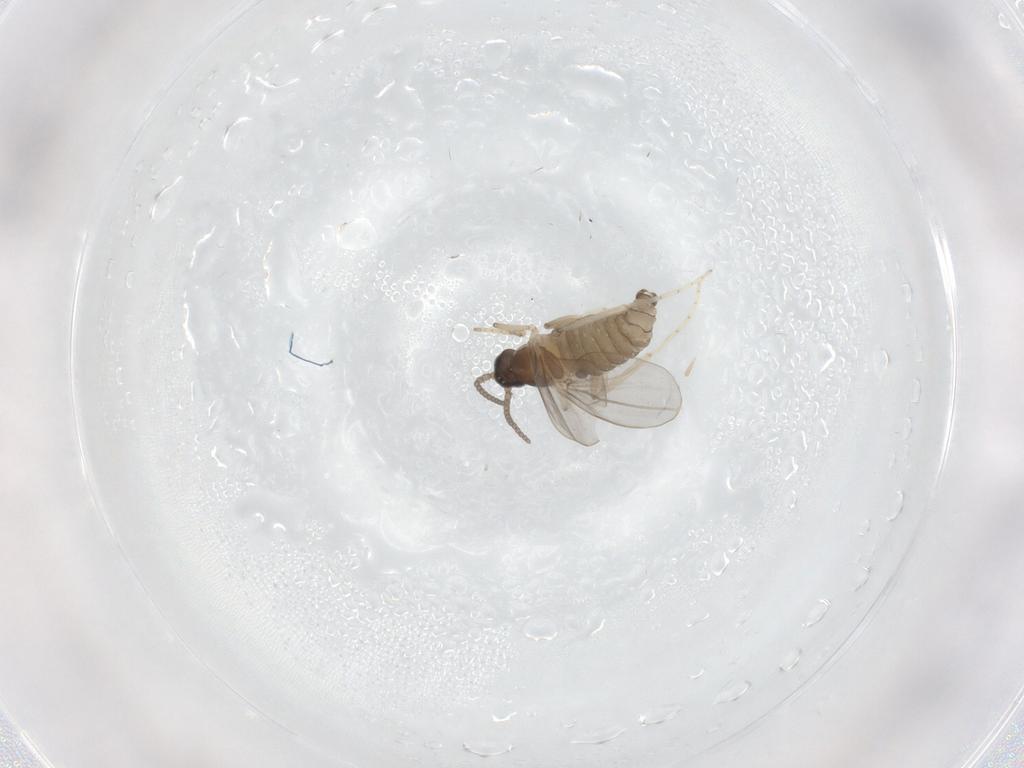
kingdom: Animalia
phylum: Arthropoda
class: Insecta
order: Diptera
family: Cecidomyiidae
